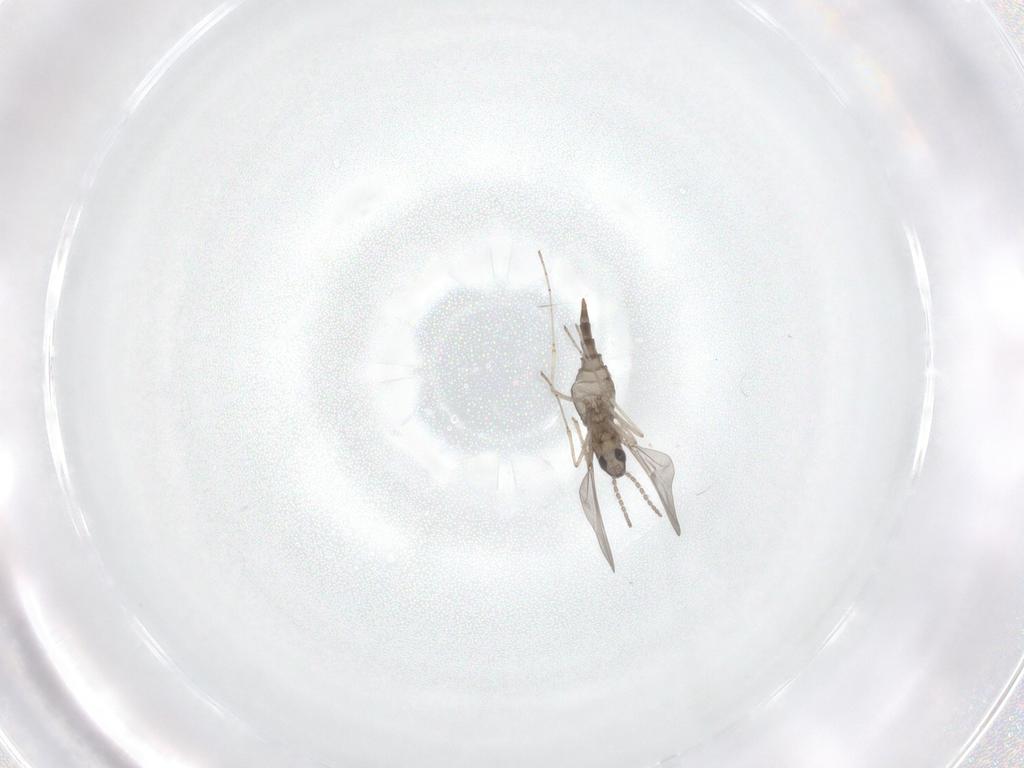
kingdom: Animalia
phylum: Arthropoda
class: Insecta
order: Diptera
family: Cecidomyiidae
